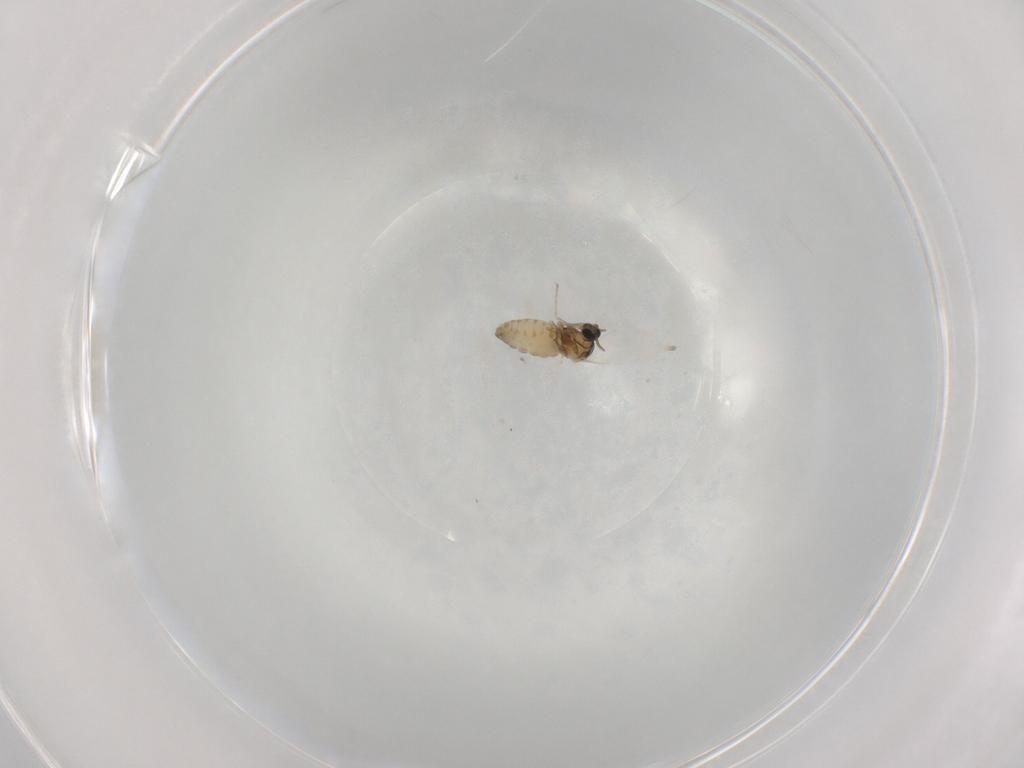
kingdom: Animalia
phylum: Arthropoda
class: Insecta
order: Diptera
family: Cecidomyiidae
